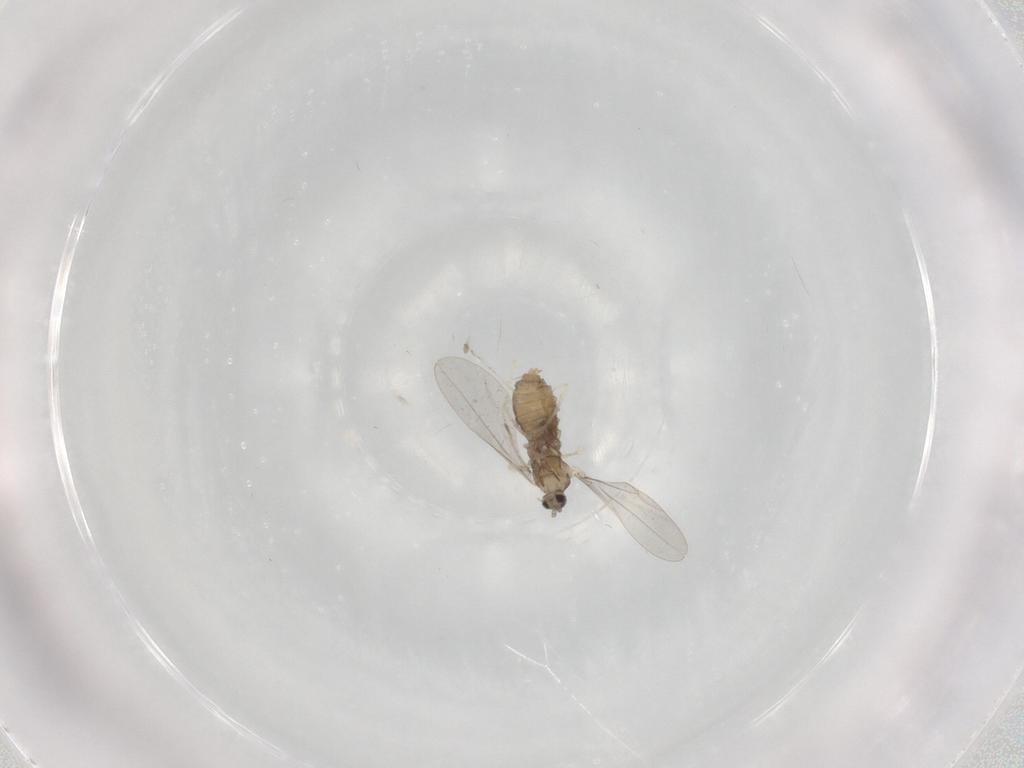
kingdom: Animalia
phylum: Arthropoda
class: Insecta
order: Diptera
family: Cecidomyiidae
